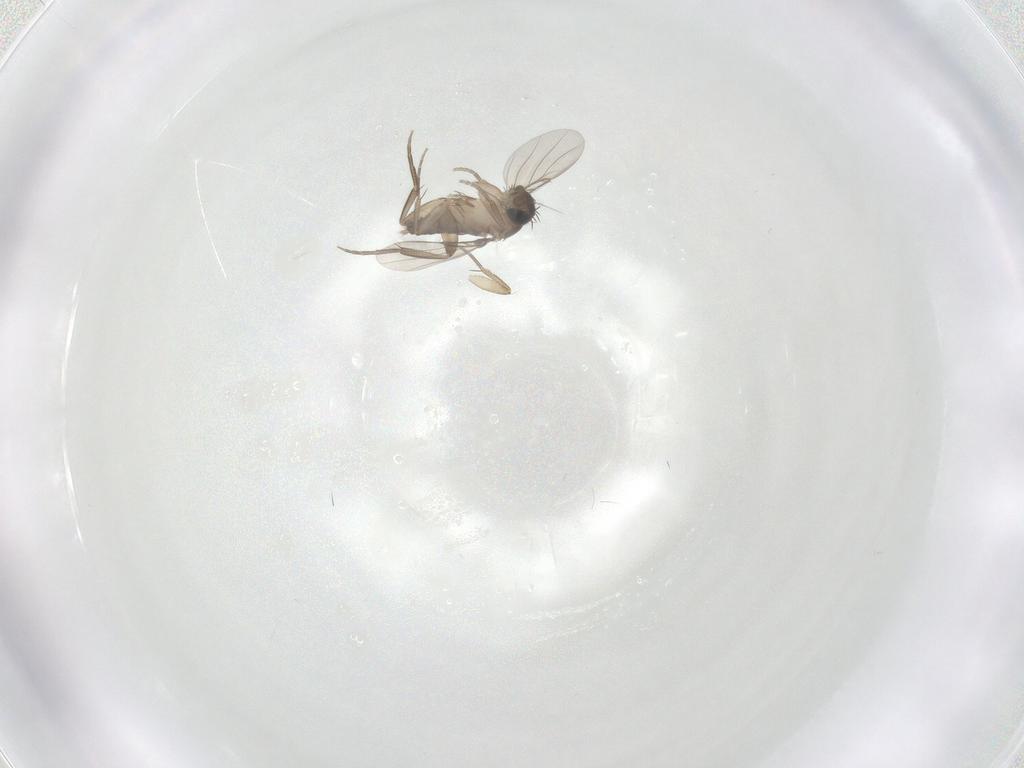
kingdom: Animalia
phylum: Arthropoda
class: Insecta
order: Diptera
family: Phoridae
